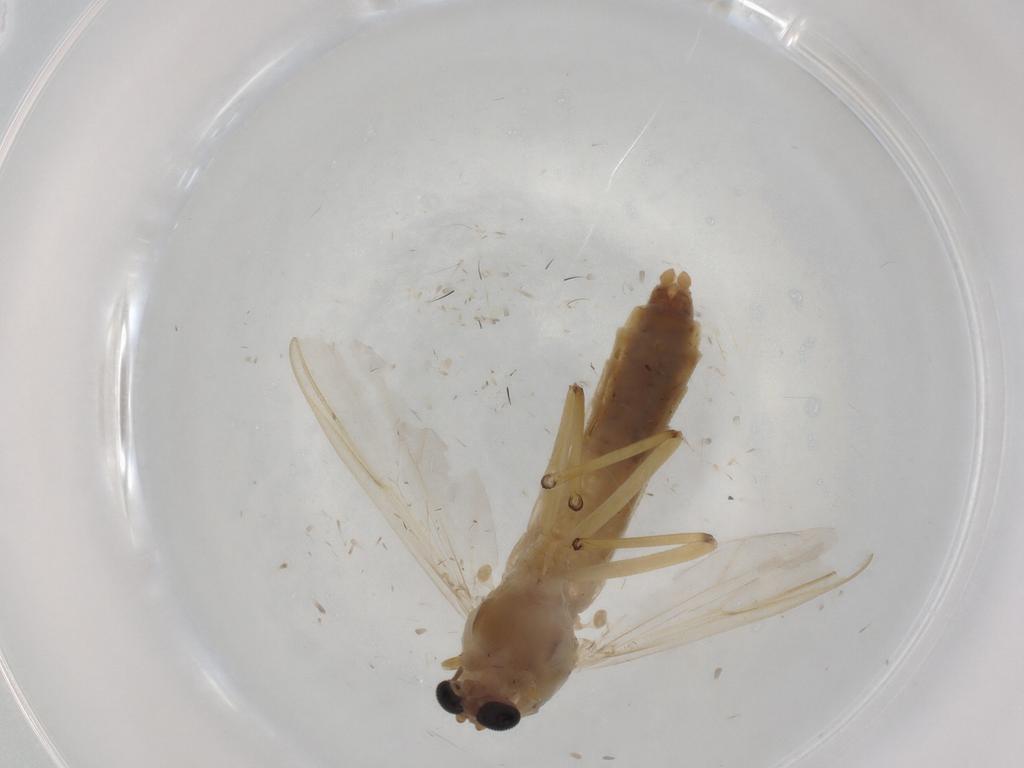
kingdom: Animalia
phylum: Arthropoda
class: Insecta
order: Diptera
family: Chironomidae
